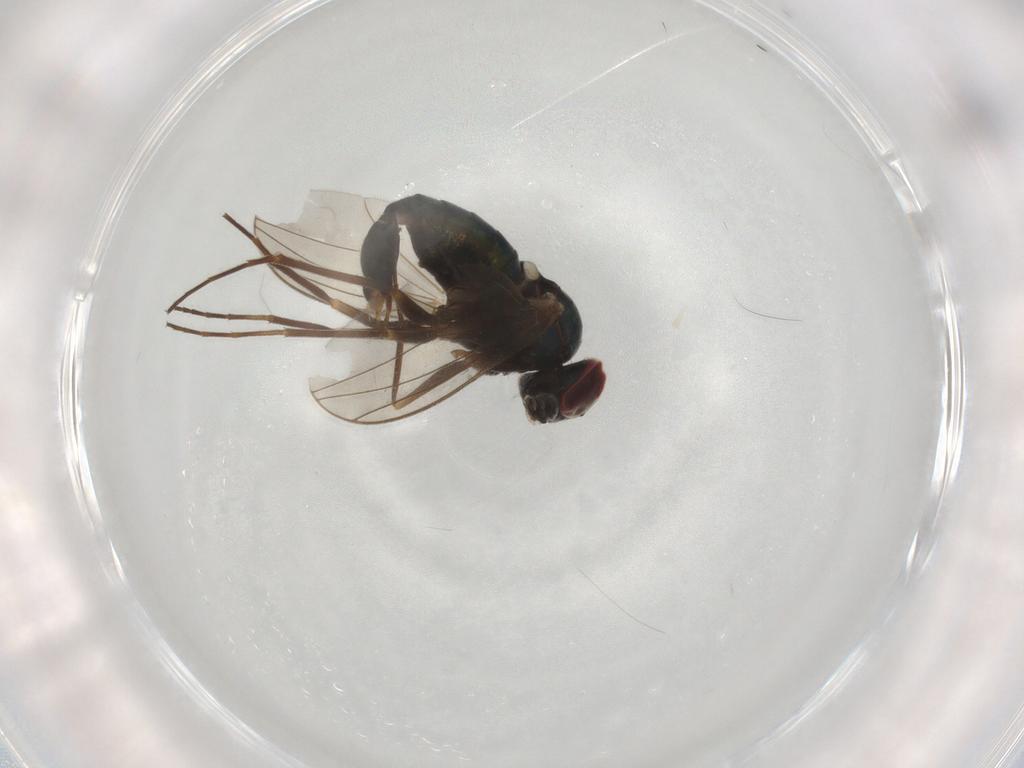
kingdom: Animalia
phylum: Arthropoda
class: Insecta
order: Diptera
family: Dolichopodidae
